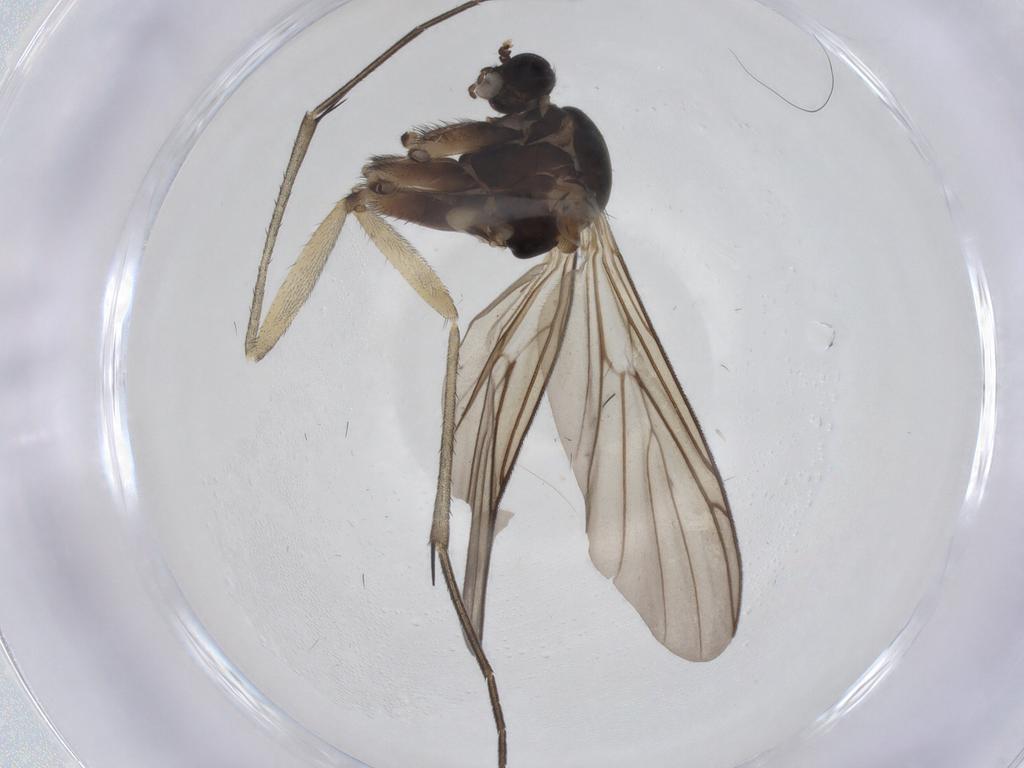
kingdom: Animalia
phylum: Arthropoda
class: Insecta
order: Diptera
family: Keroplatidae
